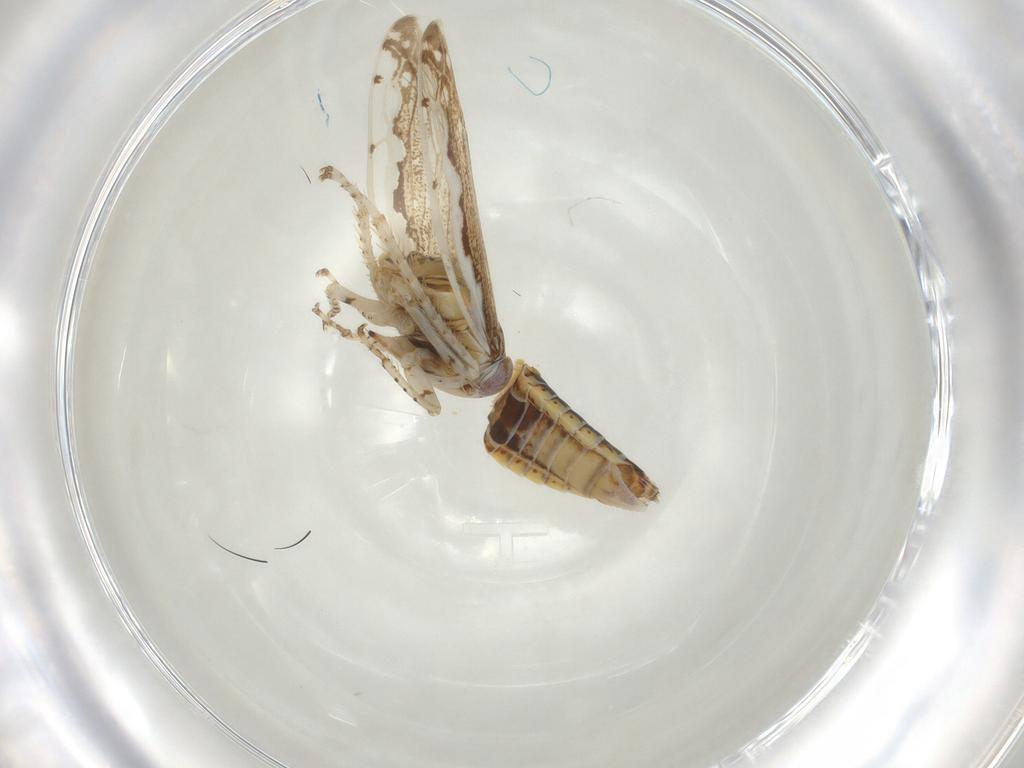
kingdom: Animalia
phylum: Arthropoda
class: Insecta
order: Hemiptera
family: Cicadellidae
